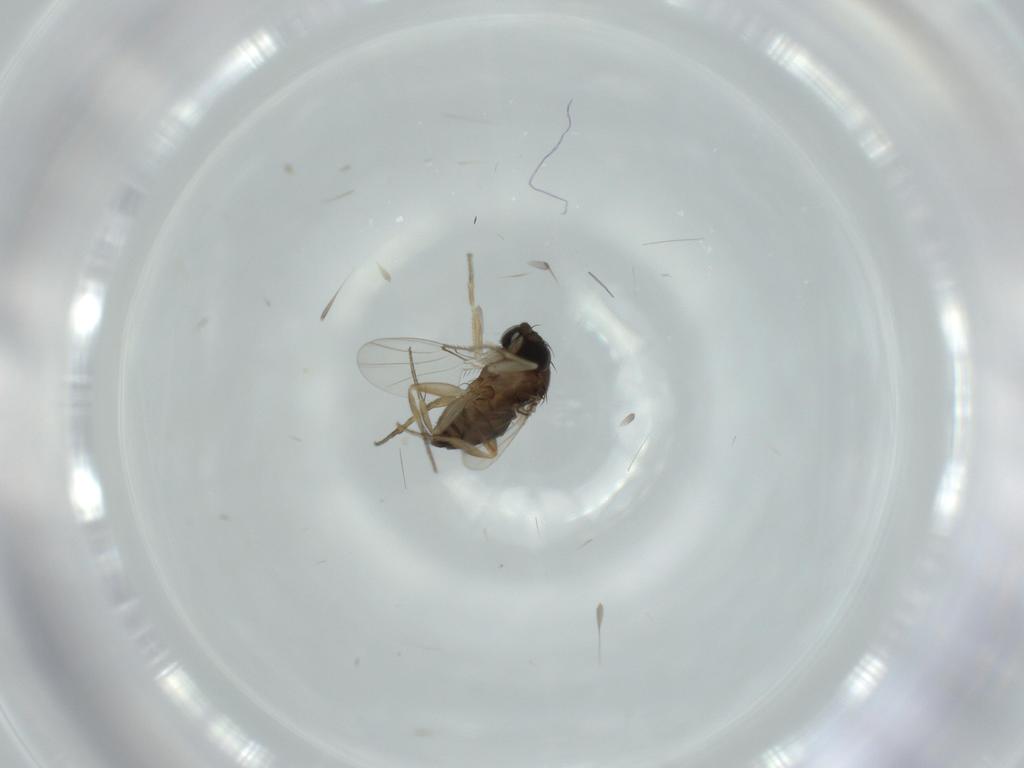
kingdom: Animalia
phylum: Arthropoda
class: Insecta
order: Diptera
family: Phoridae
